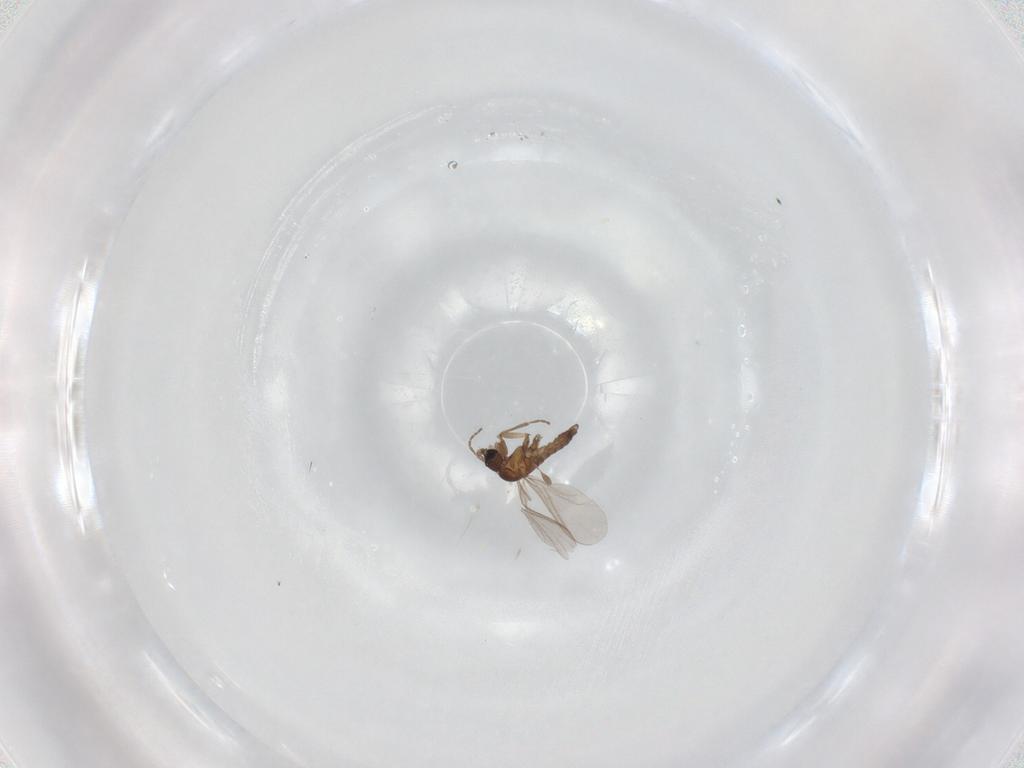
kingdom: Animalia
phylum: Arthropoda
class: Insecta
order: Diptera
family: Sciaridae
